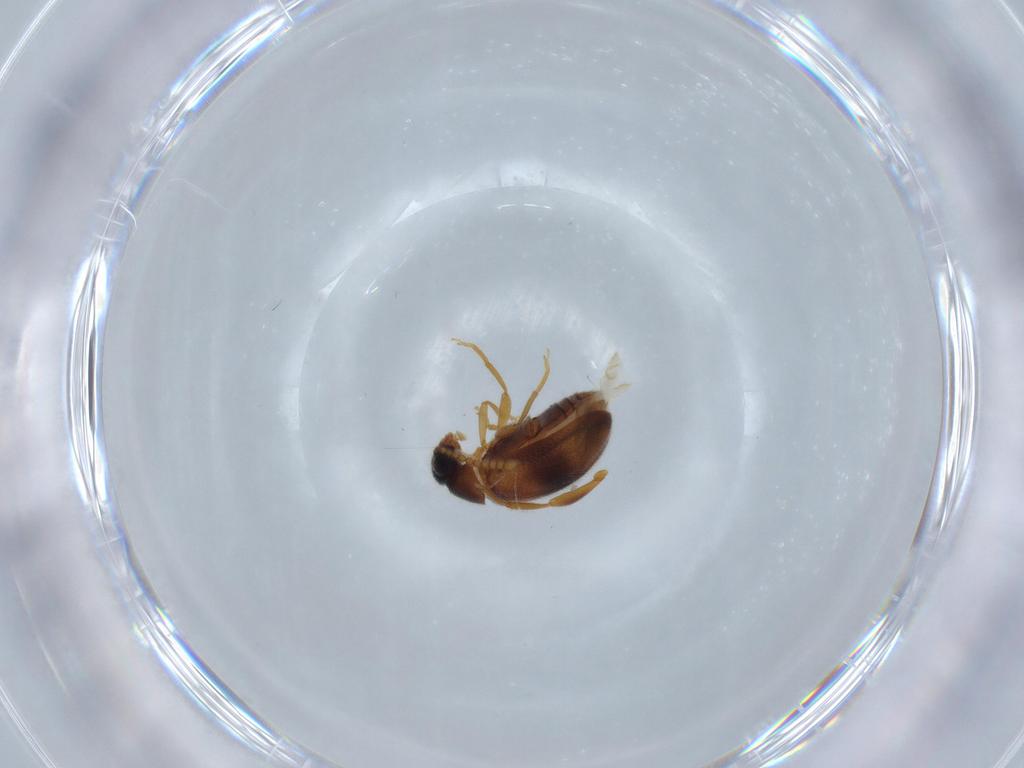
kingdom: Animalia
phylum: Arthropoda
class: Insecta
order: Coleoptera
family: Aderidae
